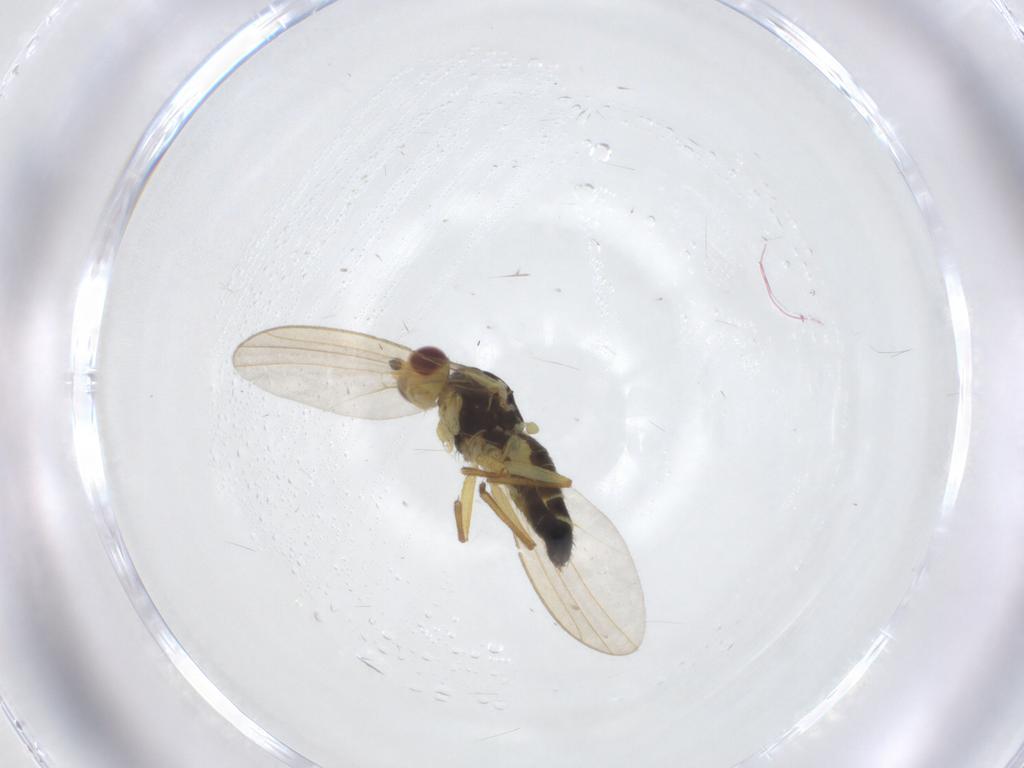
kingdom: Animalia
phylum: Arthropoda
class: Insecta
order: Diptera
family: Agromyzidae
